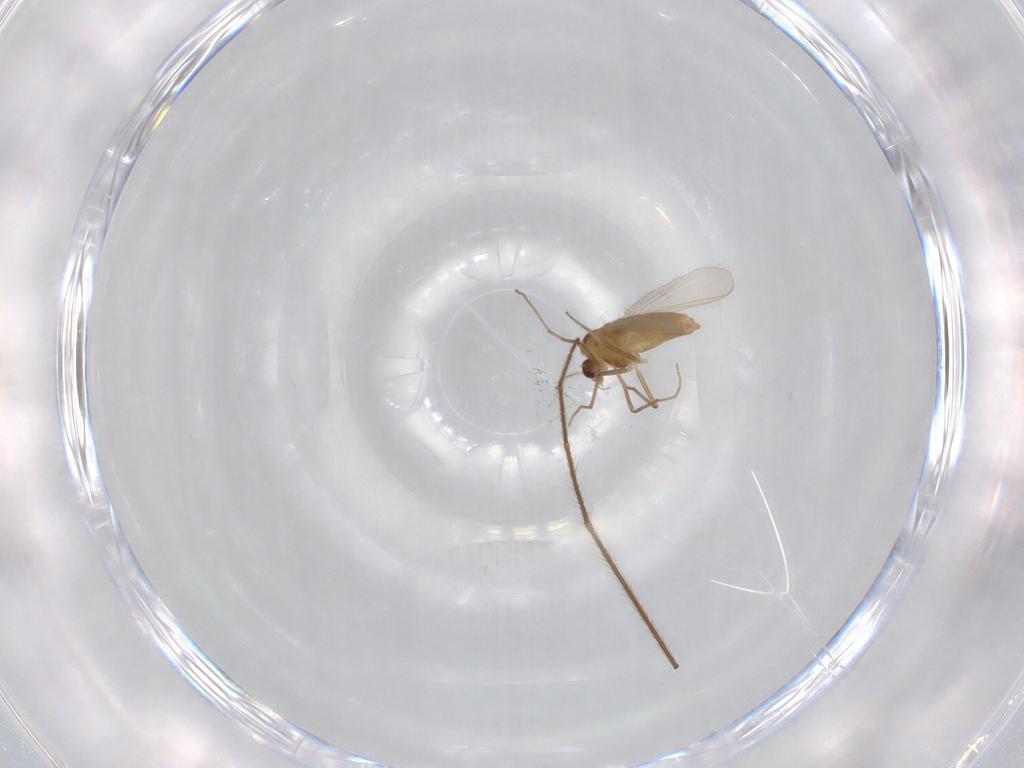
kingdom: Animalia
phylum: Arthropoda
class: Insecta
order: Diptera
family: Chironomidae
